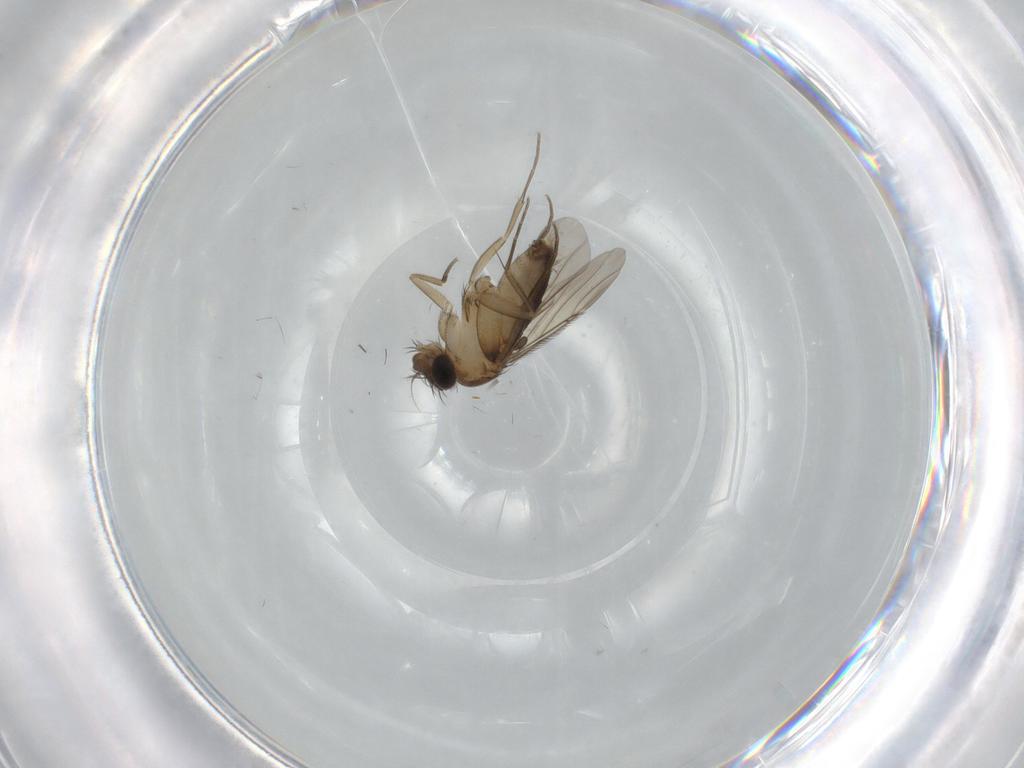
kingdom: Animalia
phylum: Arthropoda
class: Insecta
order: Diptera
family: Phoridae
